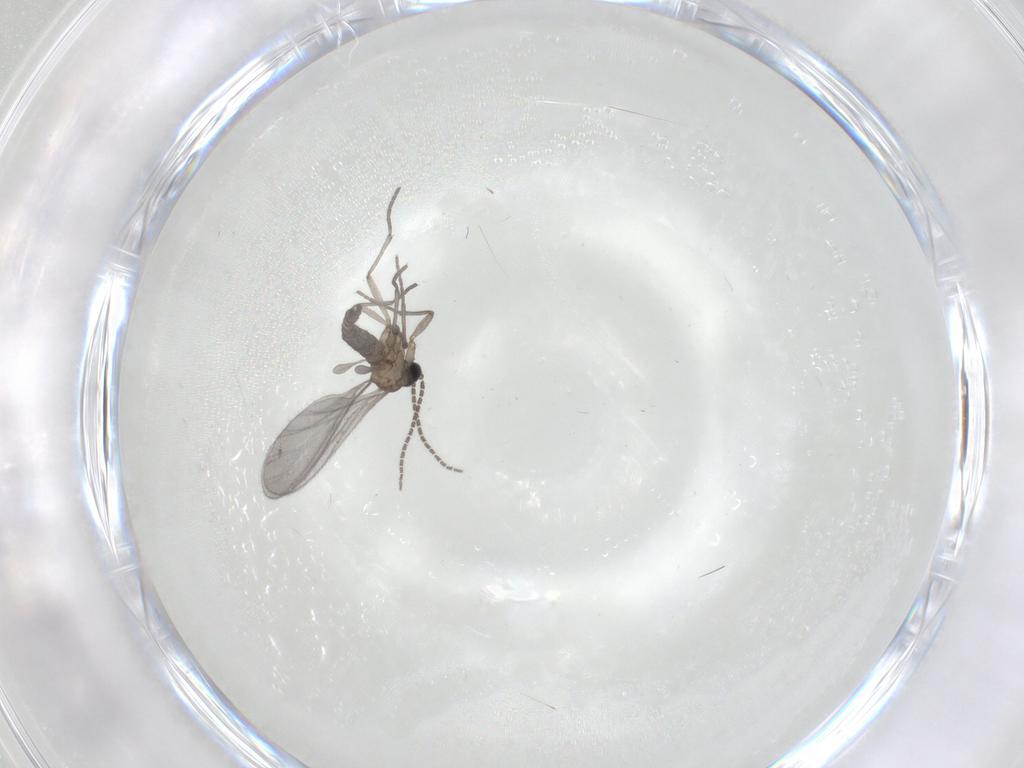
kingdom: Animalia
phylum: Arthropoda
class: Insecta
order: Diptera
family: Sciaridae
